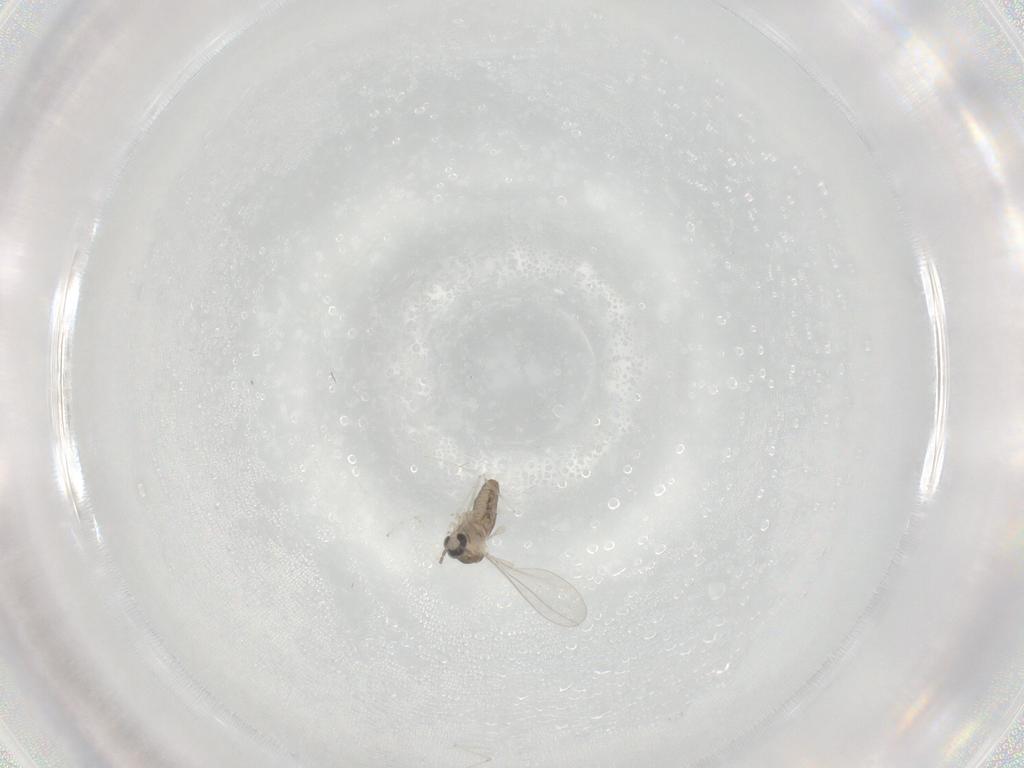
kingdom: Animalia
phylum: Arthropoda
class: Insecta
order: Diptera
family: Cecidomyiidae
